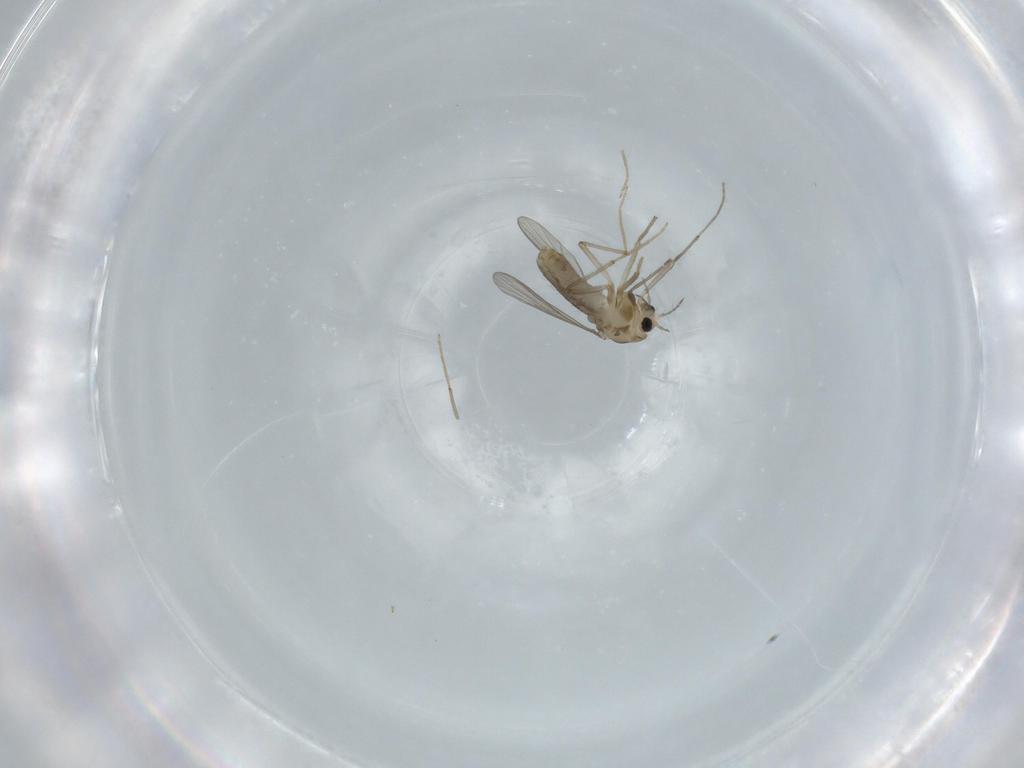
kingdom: Animalia
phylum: Arthropoda
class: Insecta
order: Diptera
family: Chironomidae
